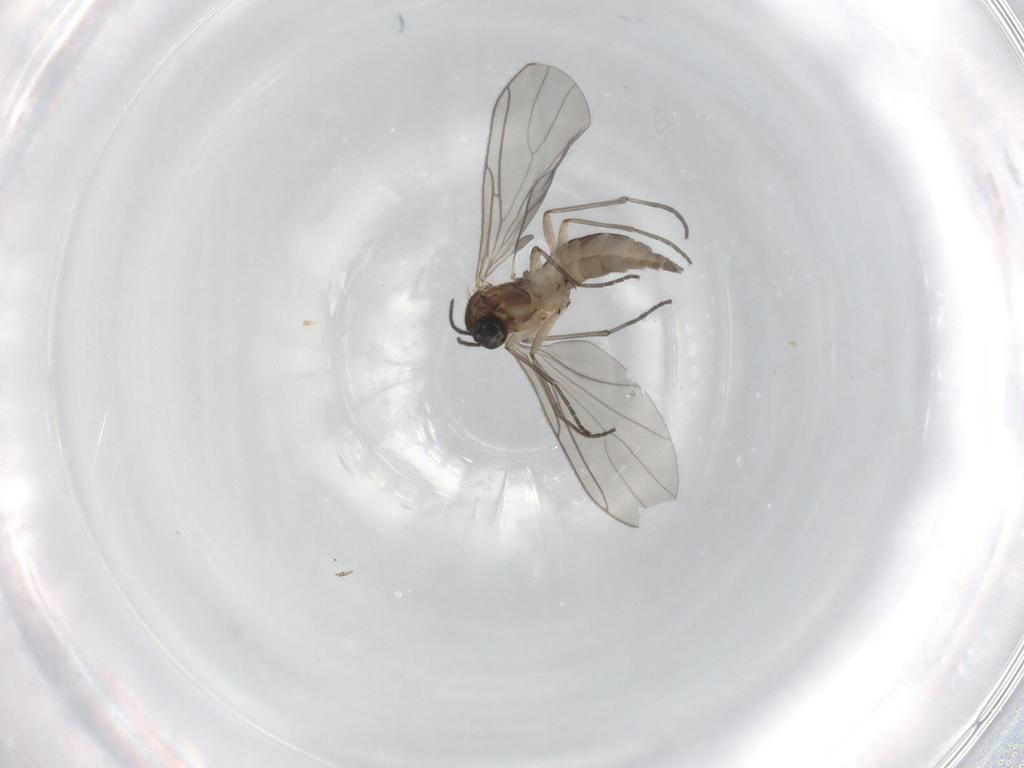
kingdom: Animalia
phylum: Arthropoda
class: Insecta
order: Diptera
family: Sciaridae
